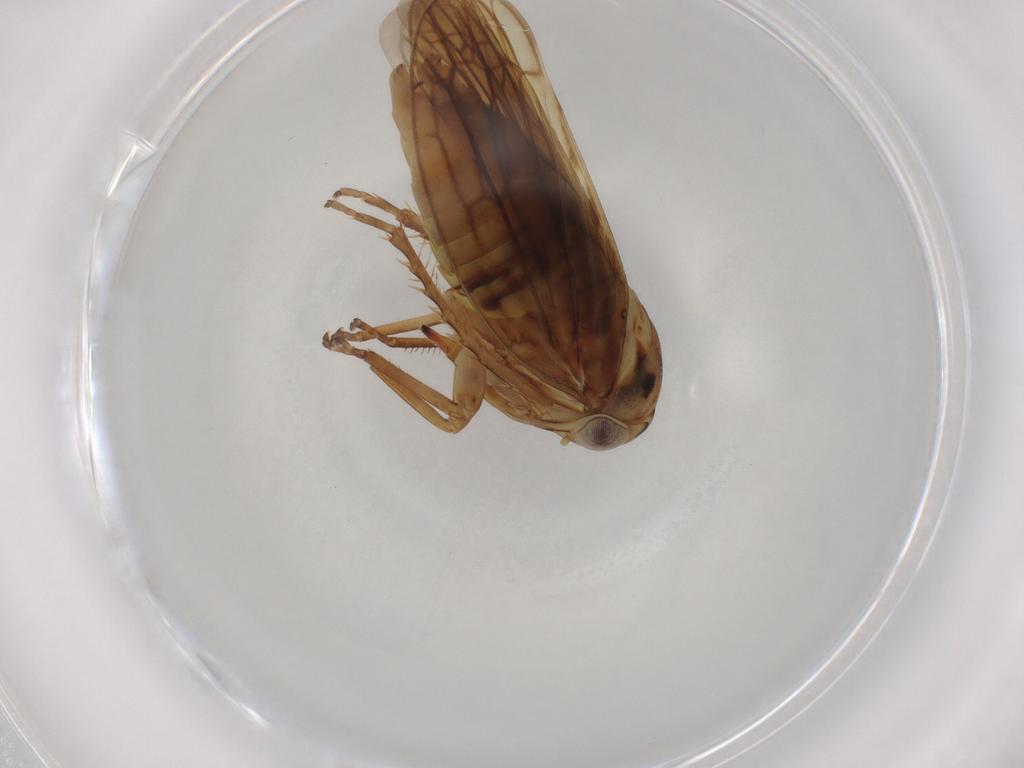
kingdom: Animalia
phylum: Arthropoda
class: Insecta
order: Hemiptera
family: Cicadellidae
